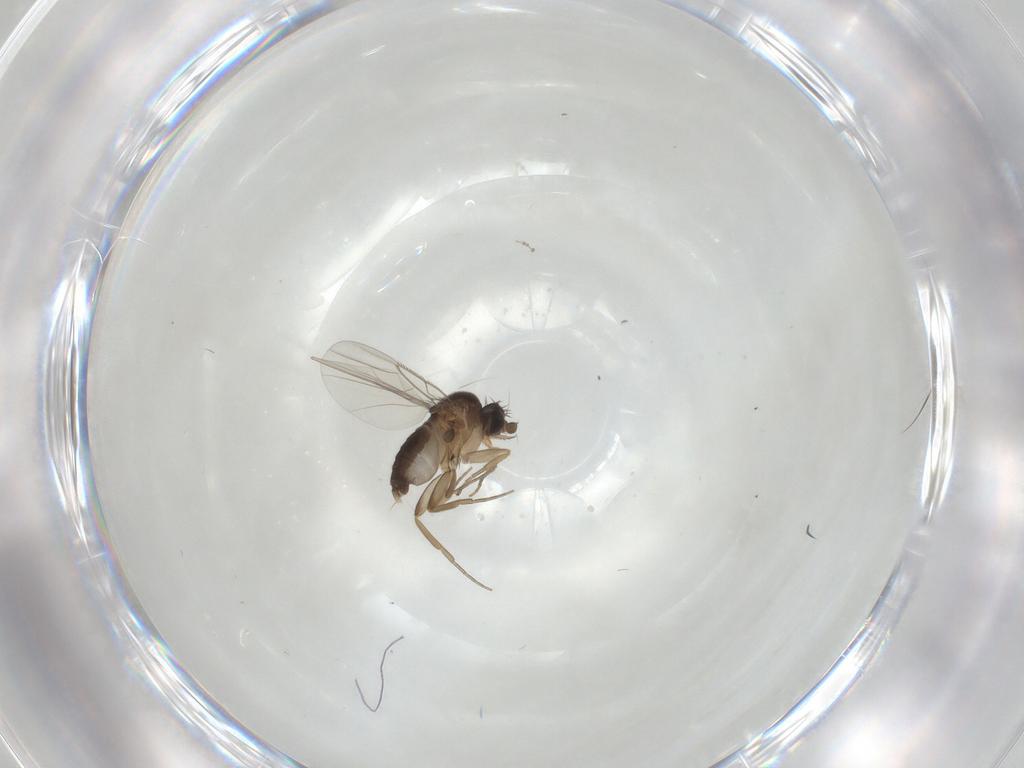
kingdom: Animalia
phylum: Arthropoda
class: Insecta
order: Diptera
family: Phoridae
